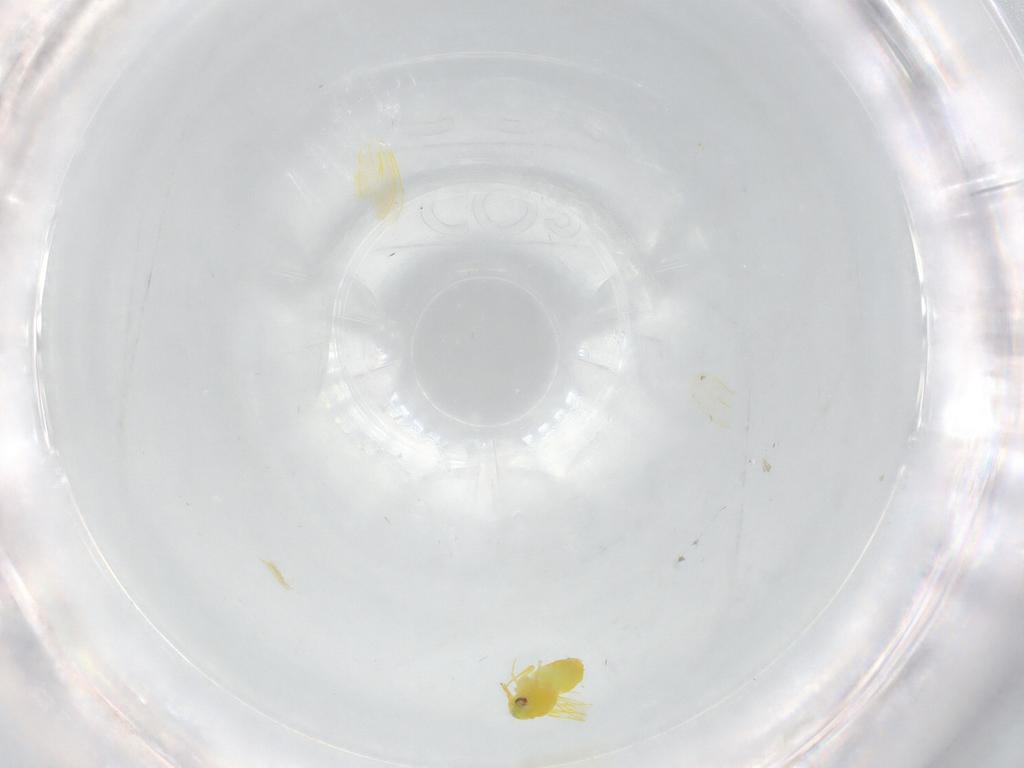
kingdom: Animalia
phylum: Arthropoda
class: Insecta
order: Hemiptera
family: Aleyrodidae
